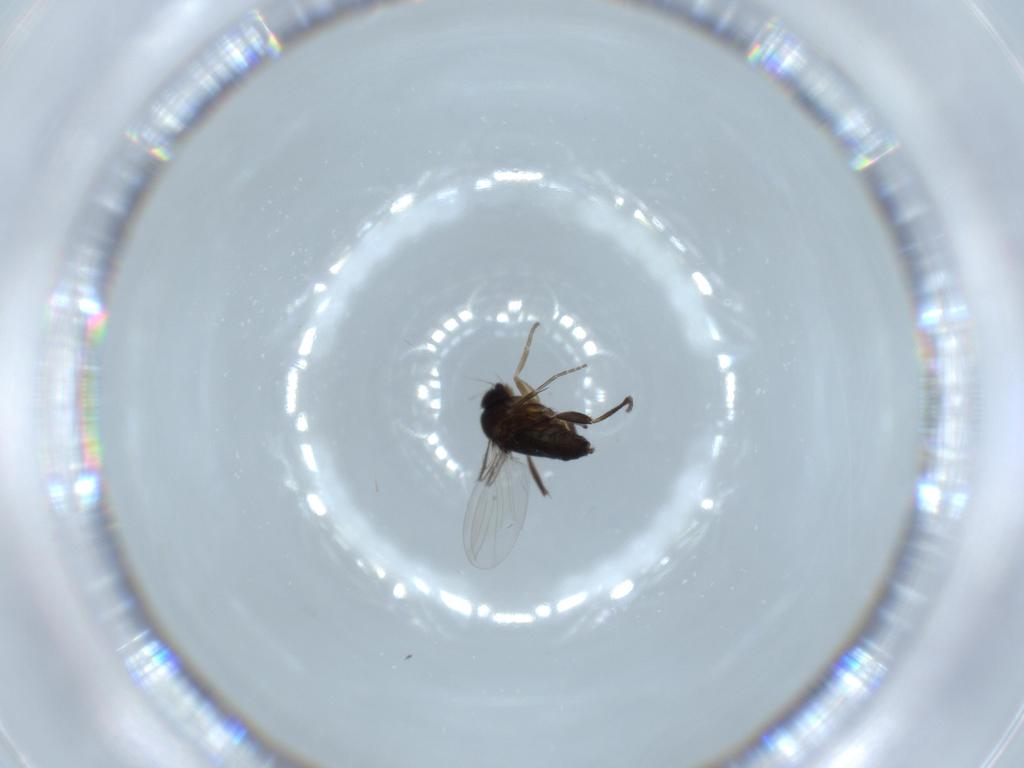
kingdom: Animalia
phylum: Arthropoda
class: Insecta
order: Diptera
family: Phoridae
